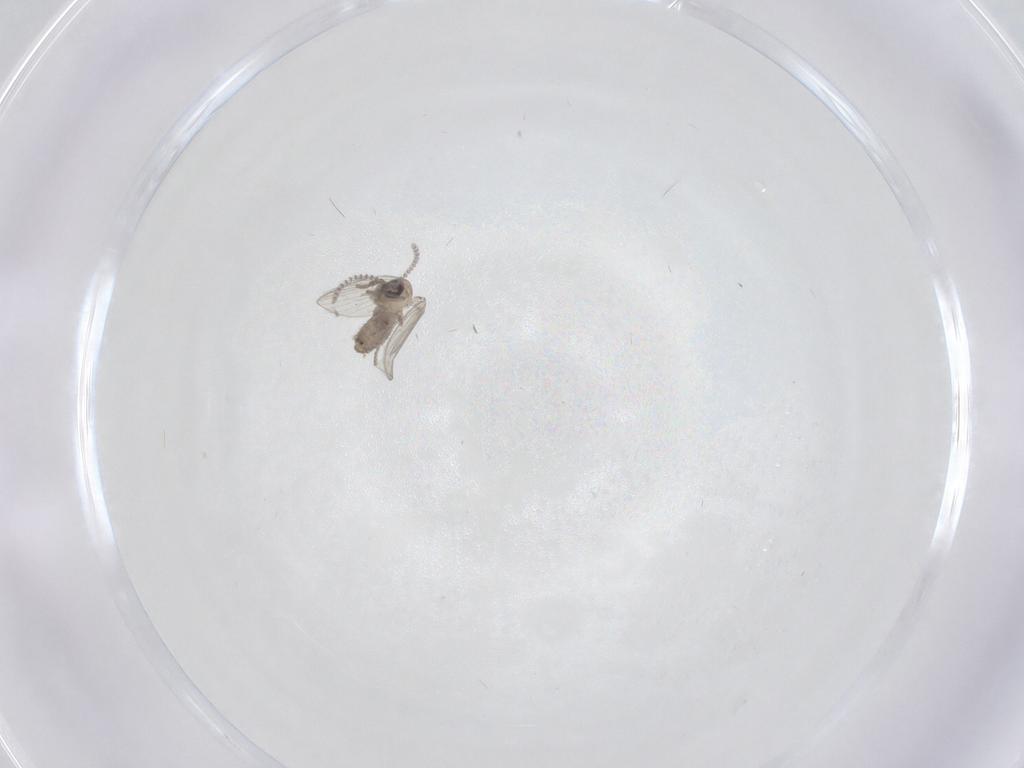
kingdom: Animalia
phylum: Arthropoda
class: Insecta
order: Diptera
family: Psychodidae
